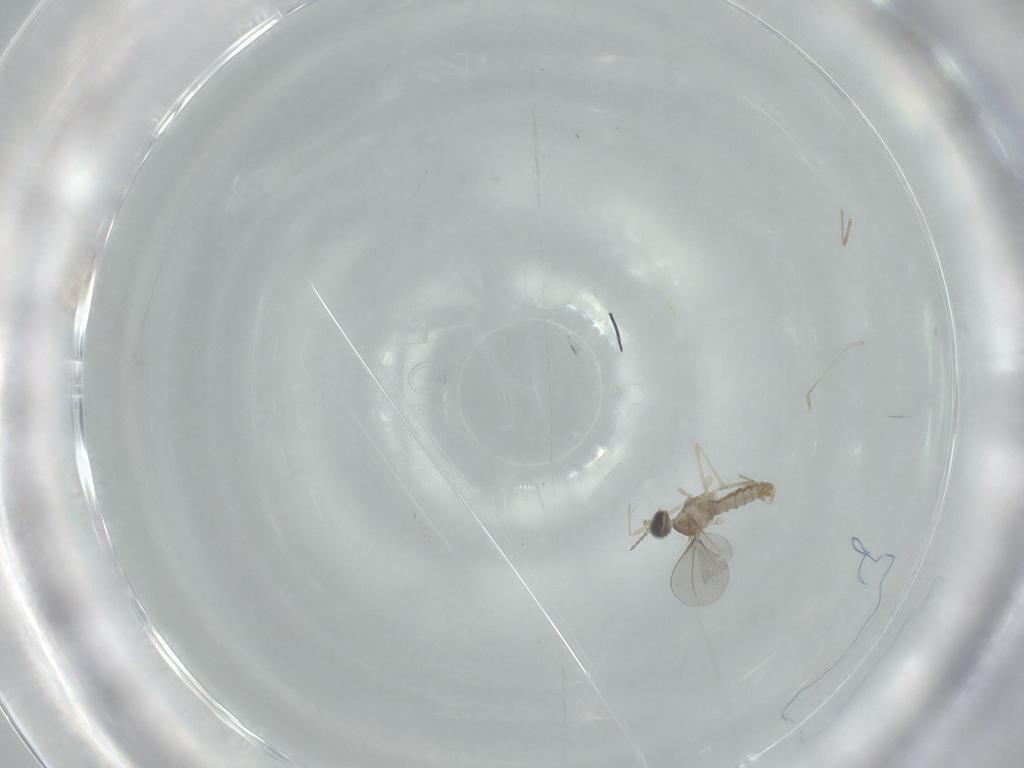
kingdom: Animalia
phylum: Arthropoda
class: Insecta
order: Diptera
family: Cecidomyiidae
